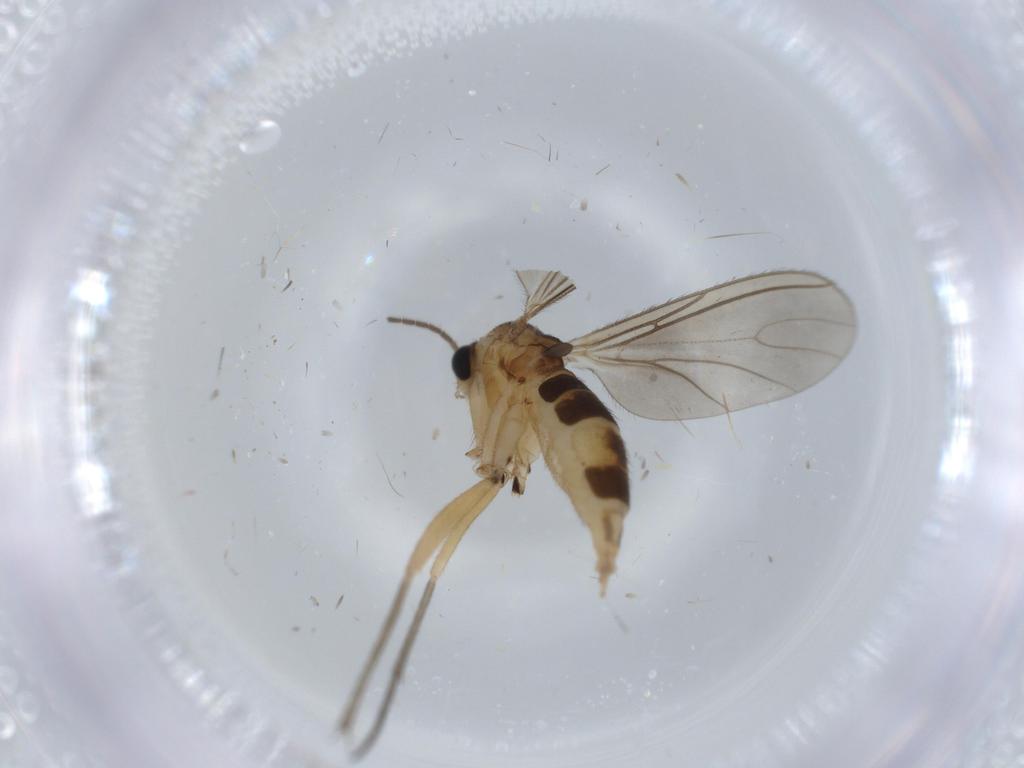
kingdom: Animalia
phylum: Arthropoda
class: Insecta
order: Diptera
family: Sciaridae
